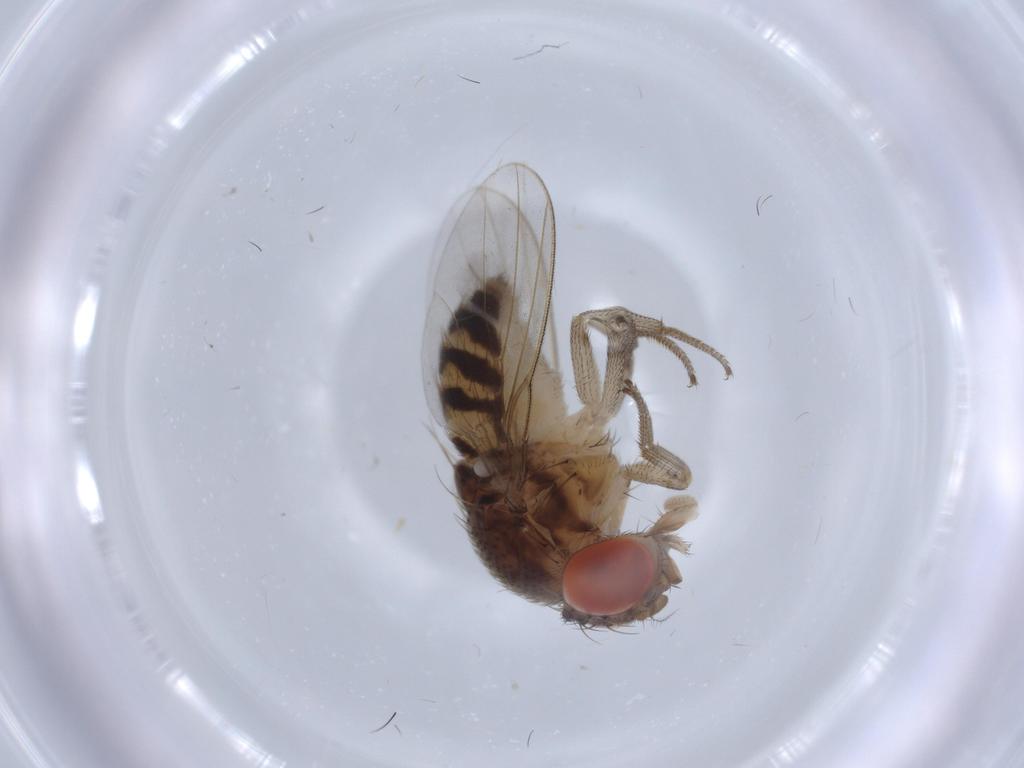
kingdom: Animalia
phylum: Arthropoda
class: Insecta
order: Diptera
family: Drosophilidae
